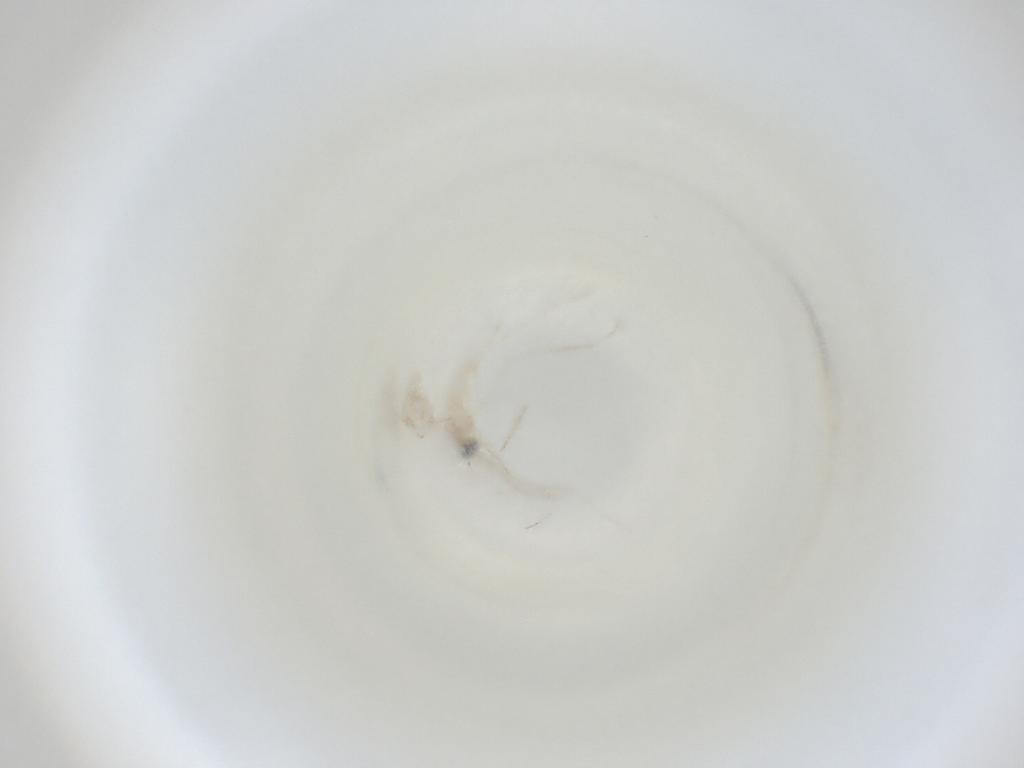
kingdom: Animalia
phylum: Arthropoda
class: Insecta
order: Diptera
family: Cecidomyiidae
